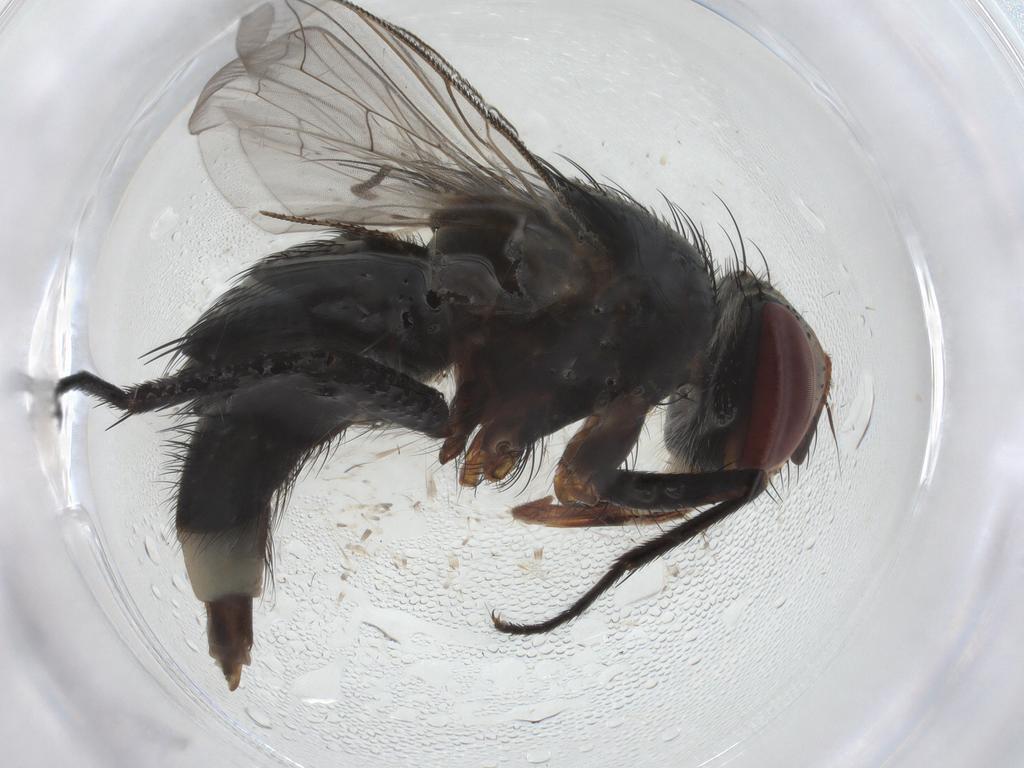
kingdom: Animalia
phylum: Arthropoda
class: Insecta
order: Diptera
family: Tachinidae
